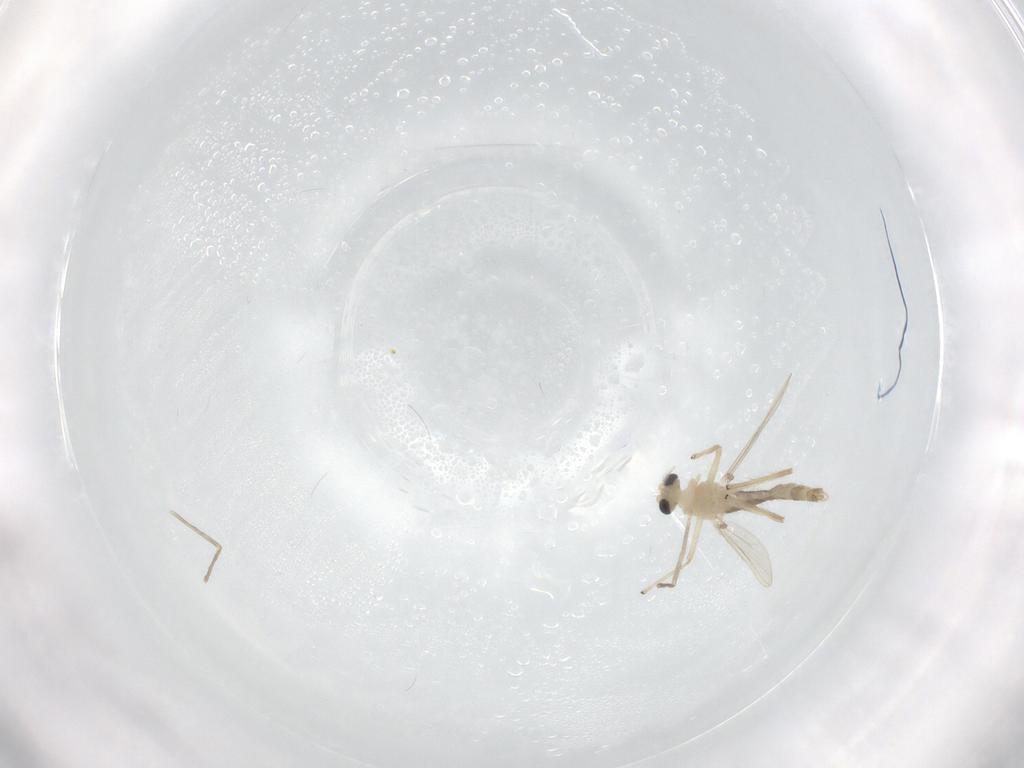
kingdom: Animalia
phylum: Arthropoda
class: Insecta
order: Diptera
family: Chironomidae
